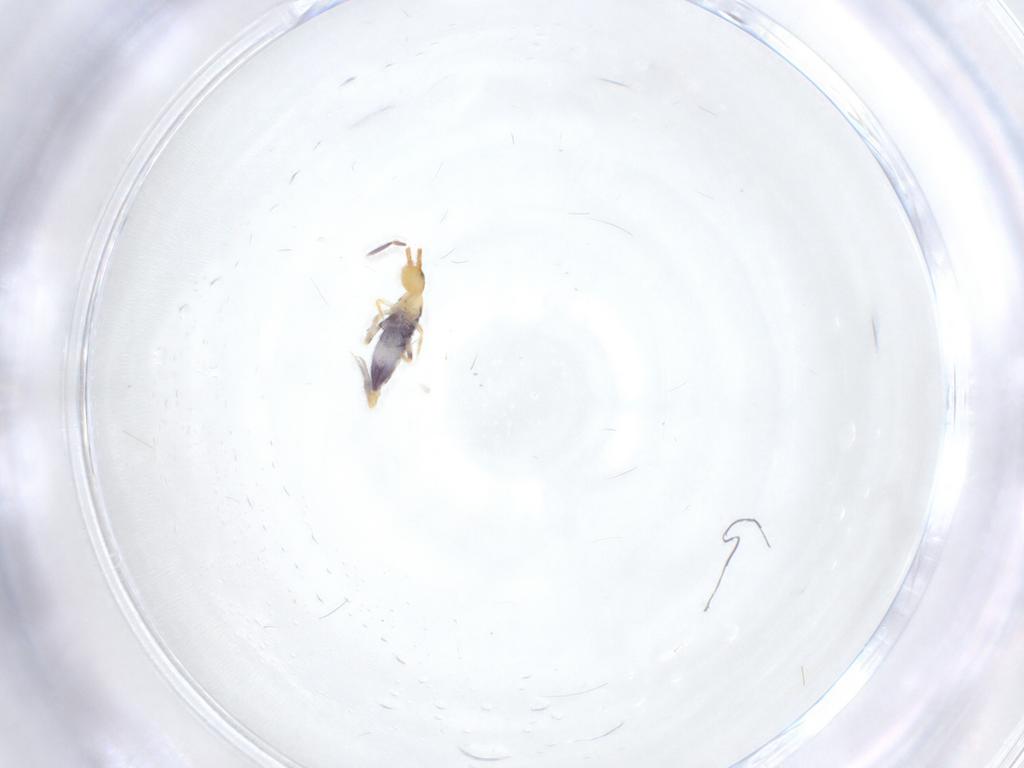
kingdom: Animalia
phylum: Arthropoda
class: Collembola
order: Entomobryomorpha
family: Entomobryidae
